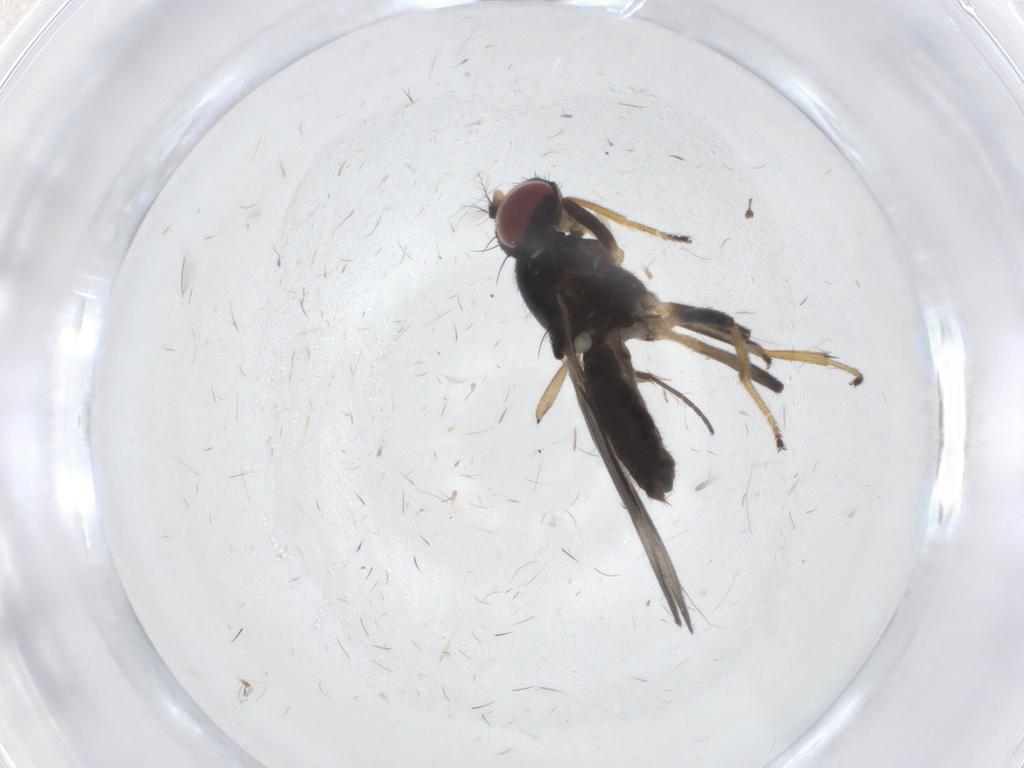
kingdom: Animalia
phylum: Arthropoda
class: Insecta
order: Diptera
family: Periscelididae
